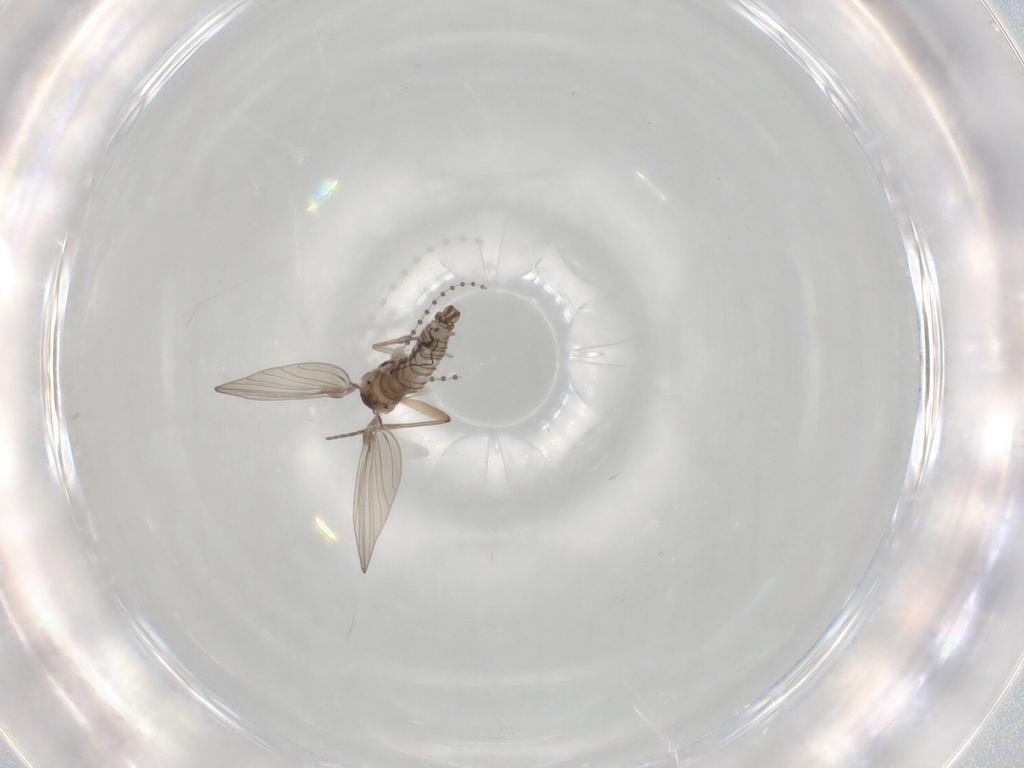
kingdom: Animalia
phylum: Arthropoda
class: Insecta
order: Diptera
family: Psychodidae
